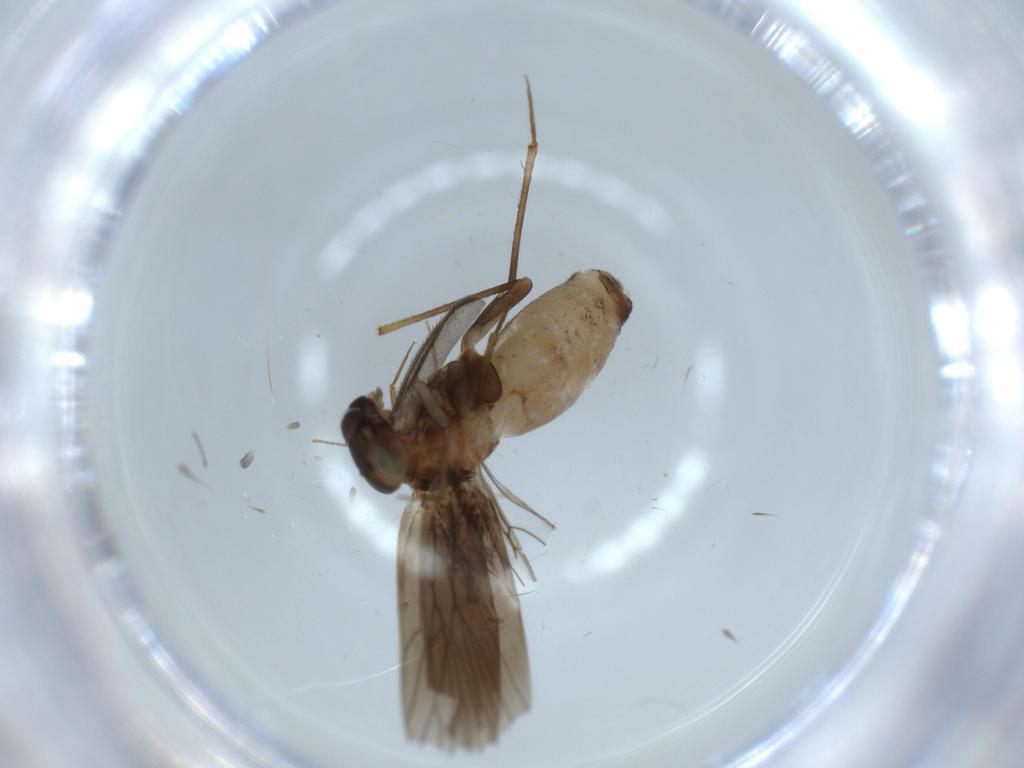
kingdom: Animalia
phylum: Arthropoda
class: Insecta
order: Psocodea
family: Lepidopsocidae
